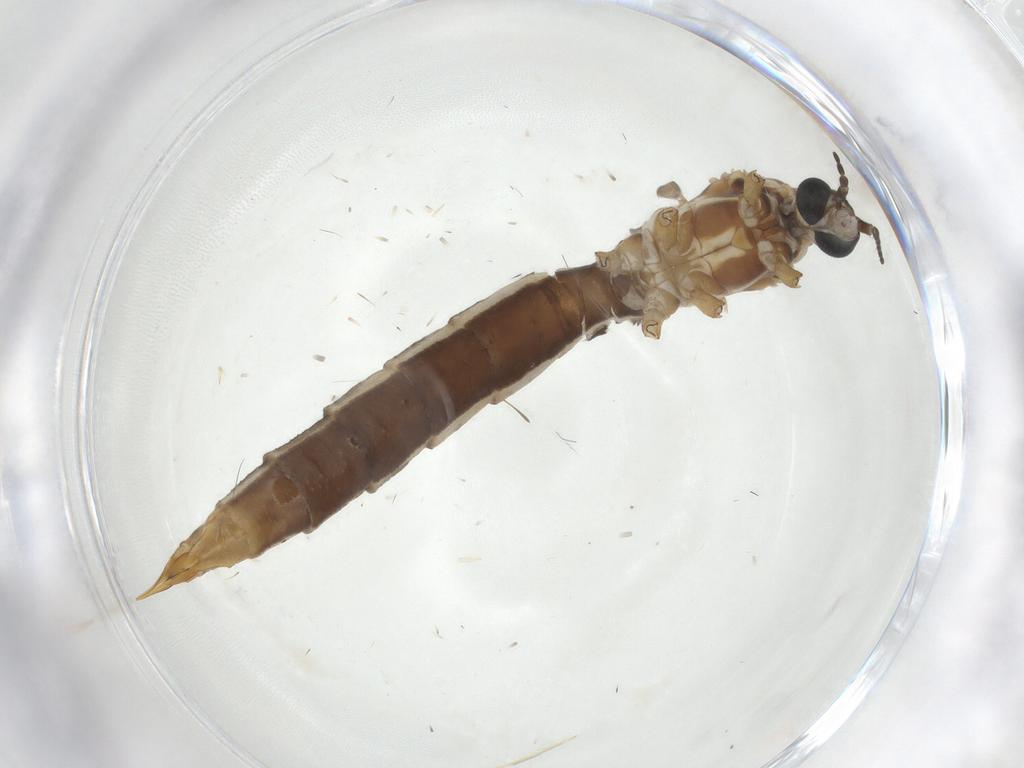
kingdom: Animalia
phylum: Arthropoda
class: Insecta
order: Diptera
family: Limoniidae
